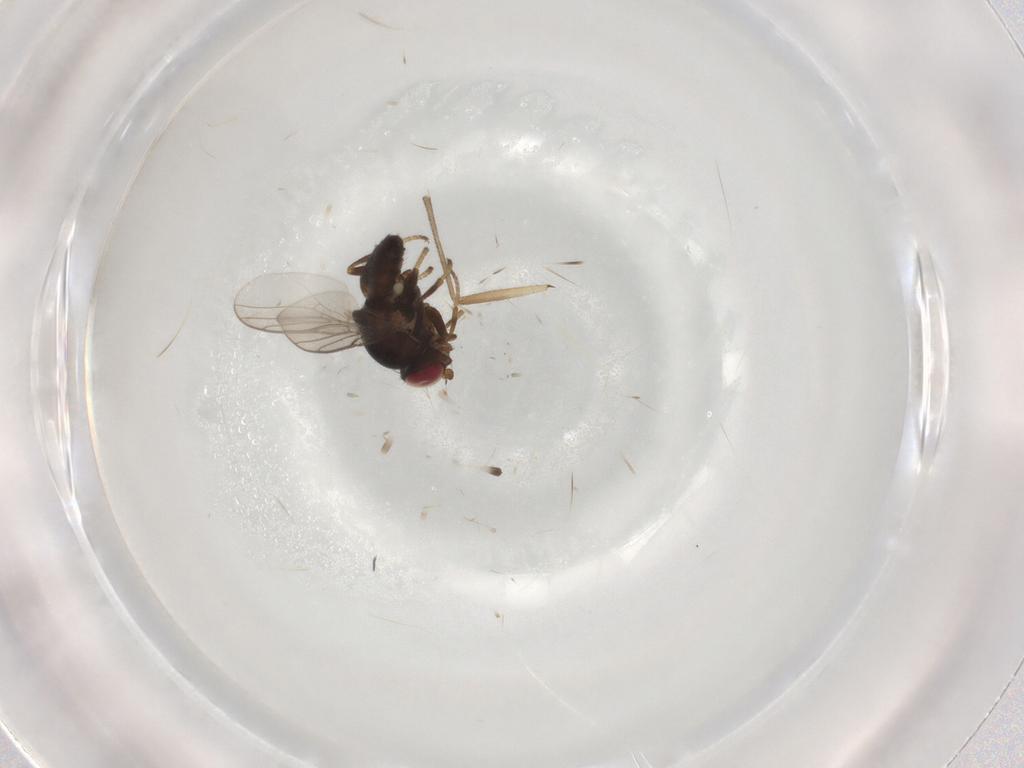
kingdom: Animalia
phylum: Arthropoda
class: Insecta
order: Diptera
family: Chloropidae
